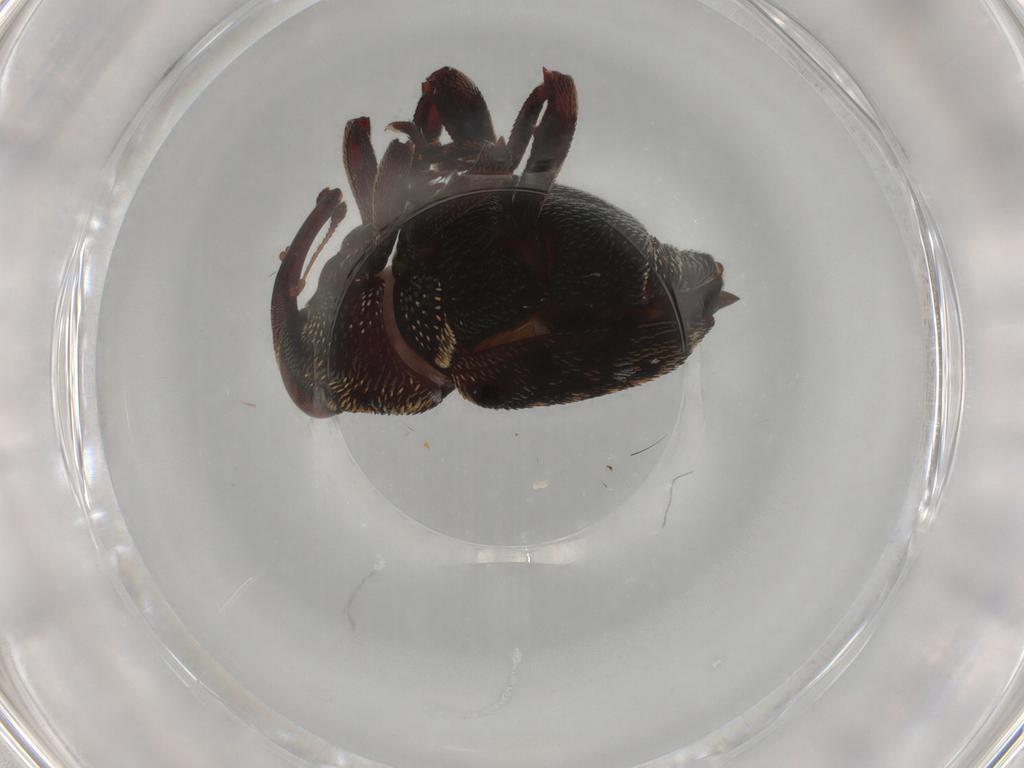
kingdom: Animalia
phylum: Arthropoda
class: Insecta
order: Coleoptera
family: Curculionidae
